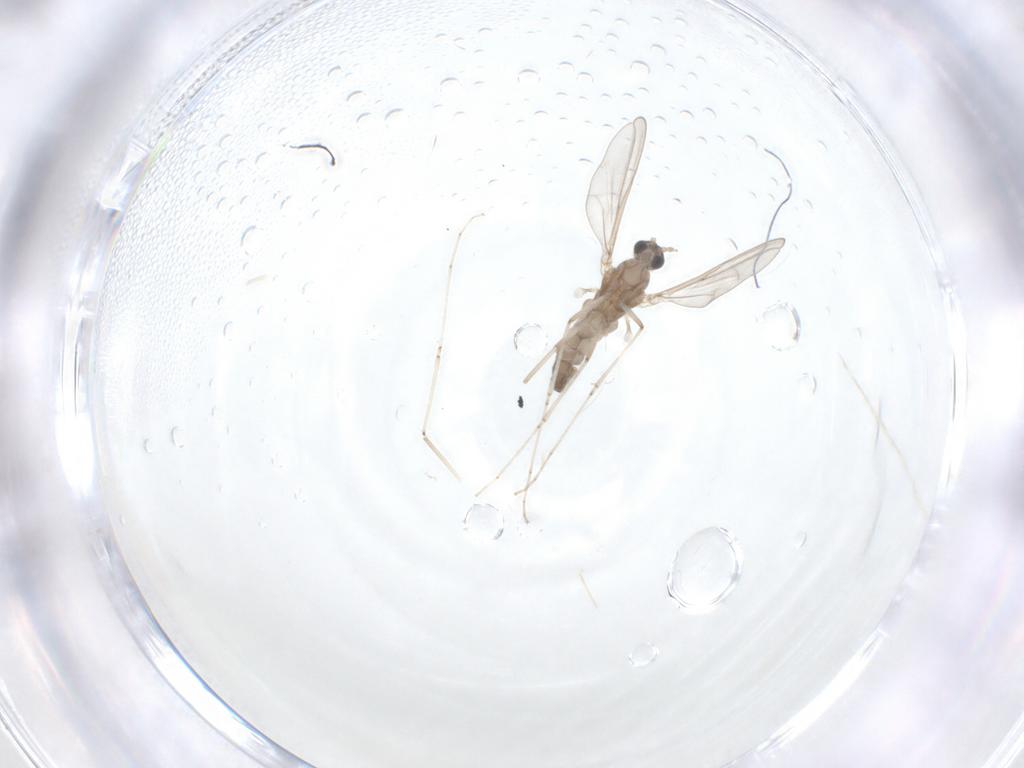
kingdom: Animalia
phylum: Arthropoda
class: Insecta
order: Diptera
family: Cecidomyiidae
